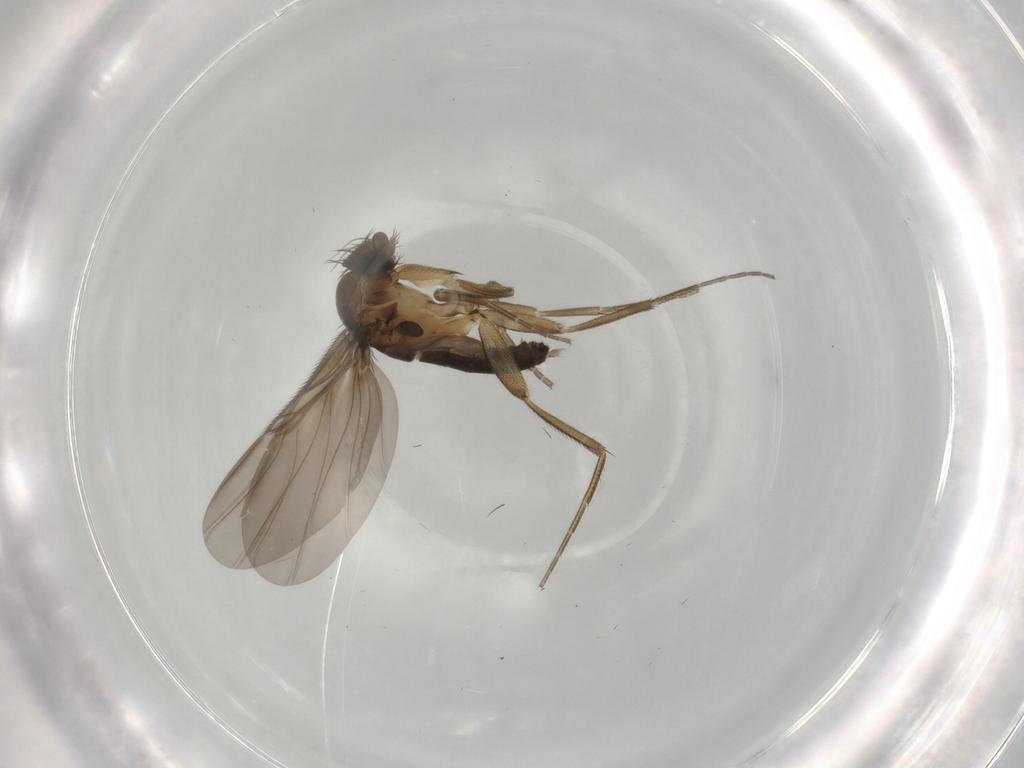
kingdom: Animalia
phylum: Arthropoda
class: Insecta
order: Diptera
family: Phoridae
